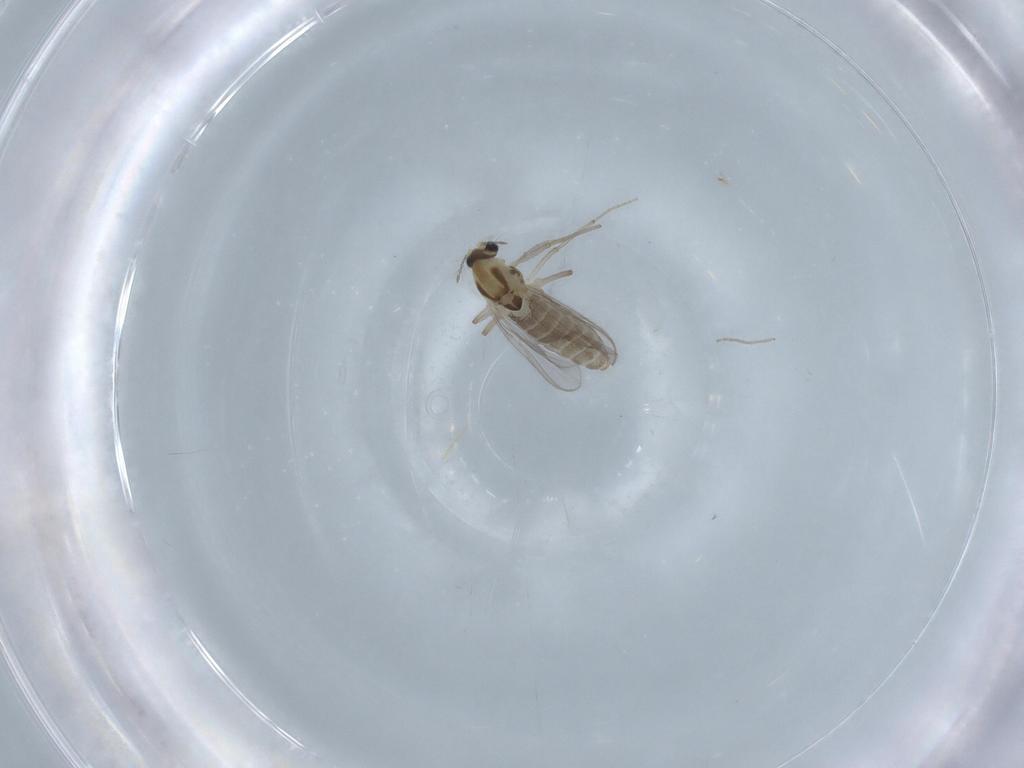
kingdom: Animalia
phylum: Arthropoda
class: Insecta
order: Diptera
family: Chironomidae
